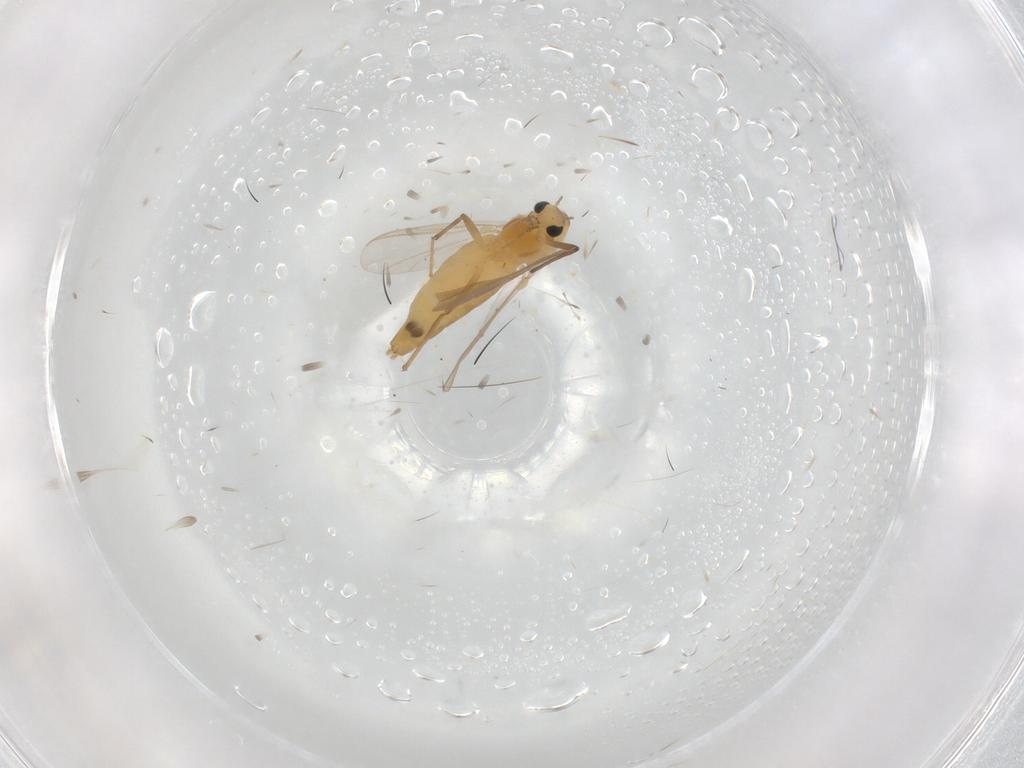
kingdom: Animalia
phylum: Arthropoda
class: Insecta
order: Diptera
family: Chironomidae
